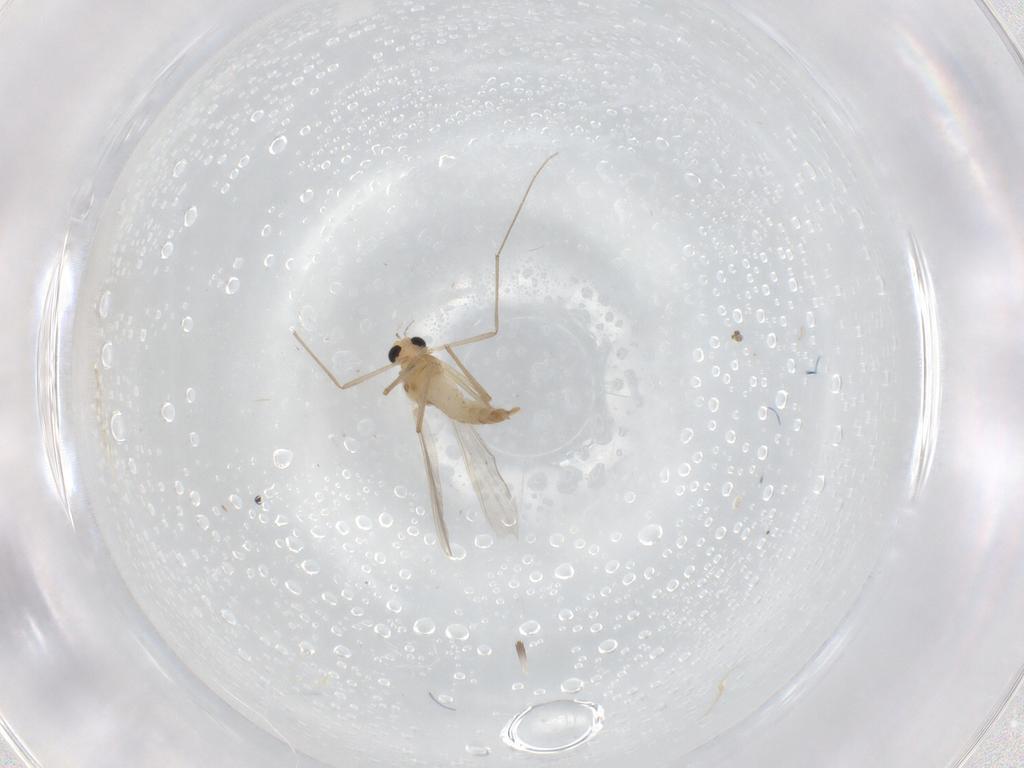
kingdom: Animalia
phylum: Arthropoda
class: Insecta
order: Diptera
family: Chironomidae
